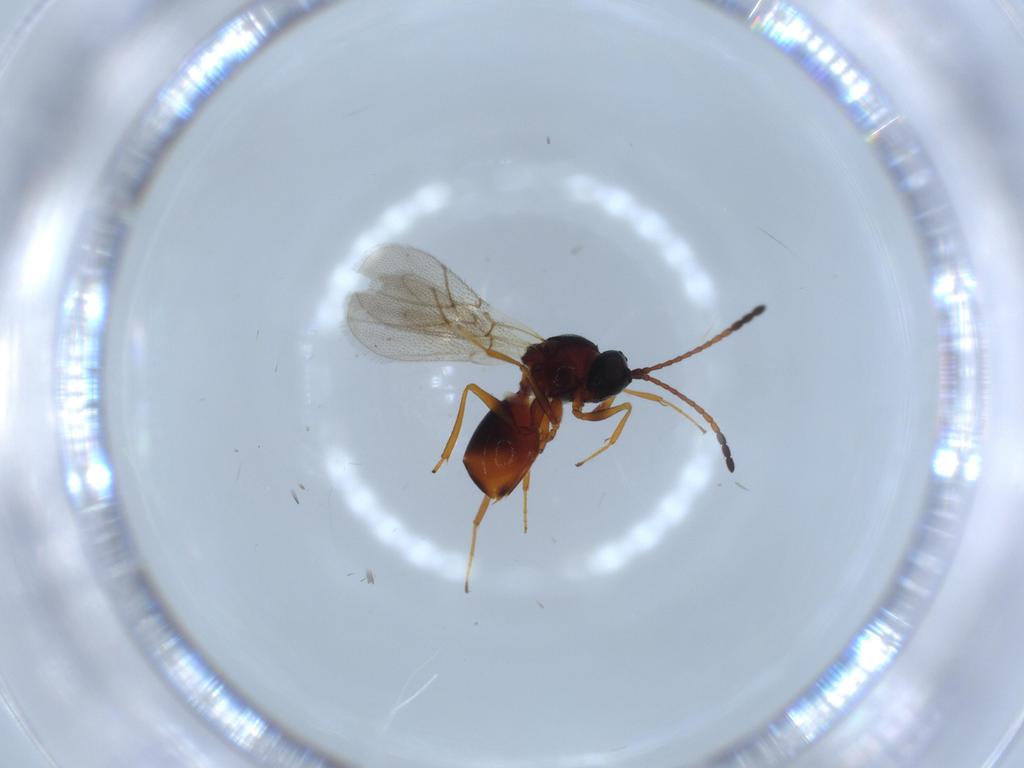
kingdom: Animalia
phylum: Arthropoda
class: Insecta
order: Hymenoptera
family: Figitidae
